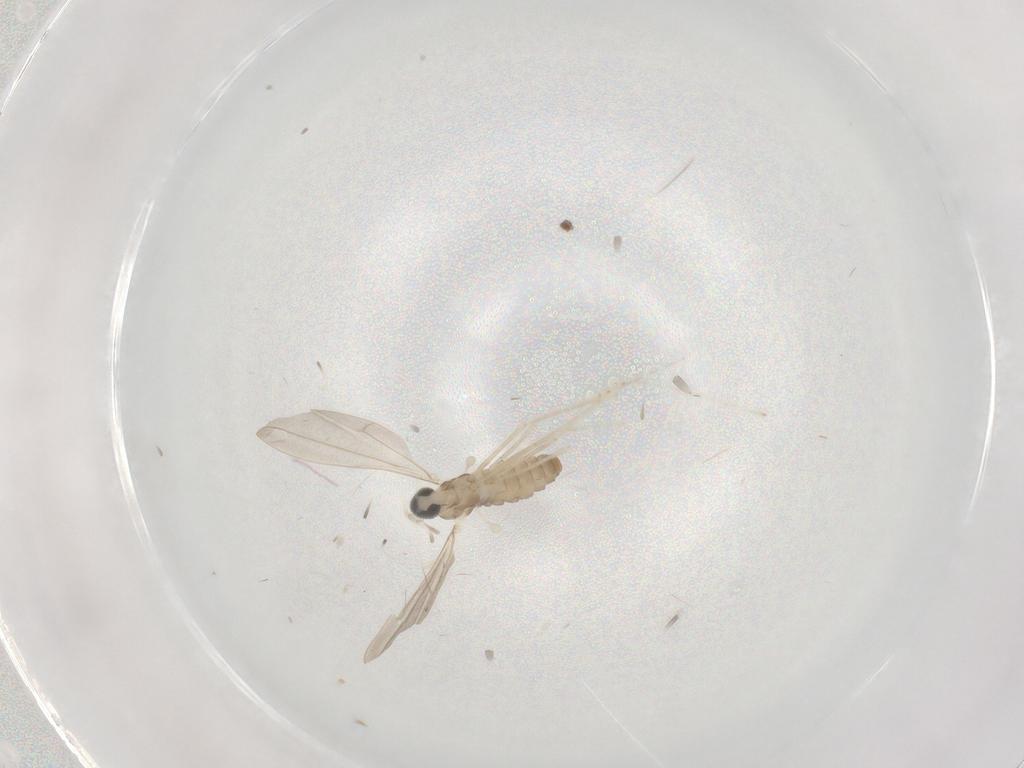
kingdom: Animalia
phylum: Arthropoda
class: Insecta
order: Diptera
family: Cecidomyiidae
